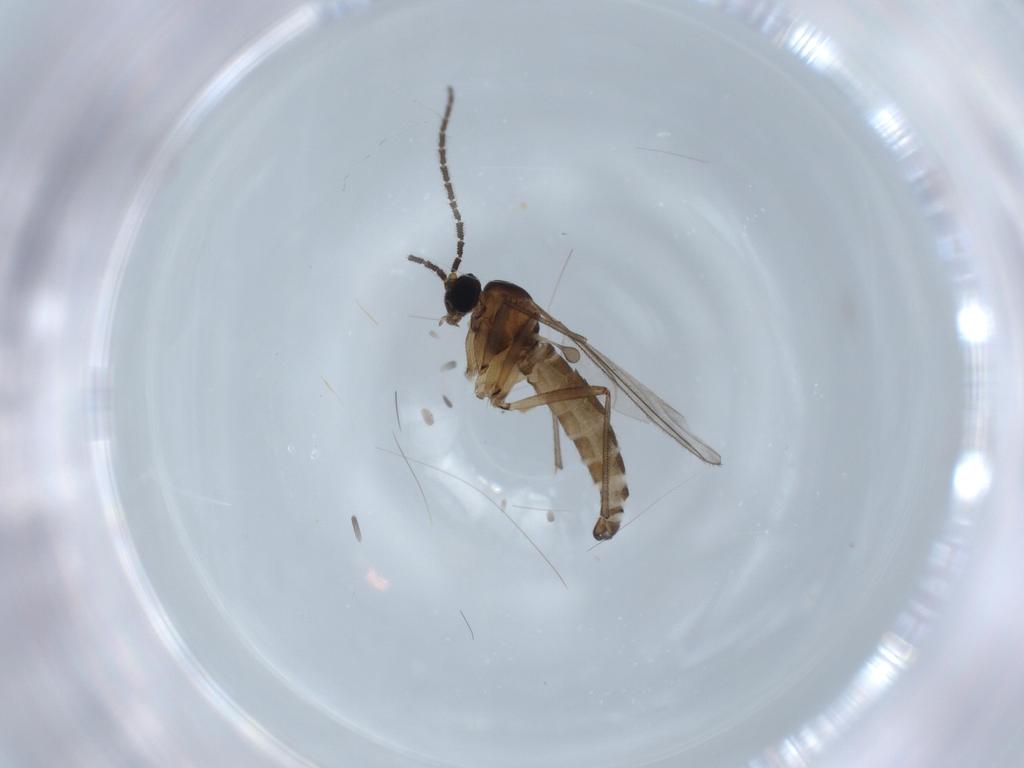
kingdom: Animalia
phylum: Arthropoda
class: Insecta
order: Diptera
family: Sciaridae
